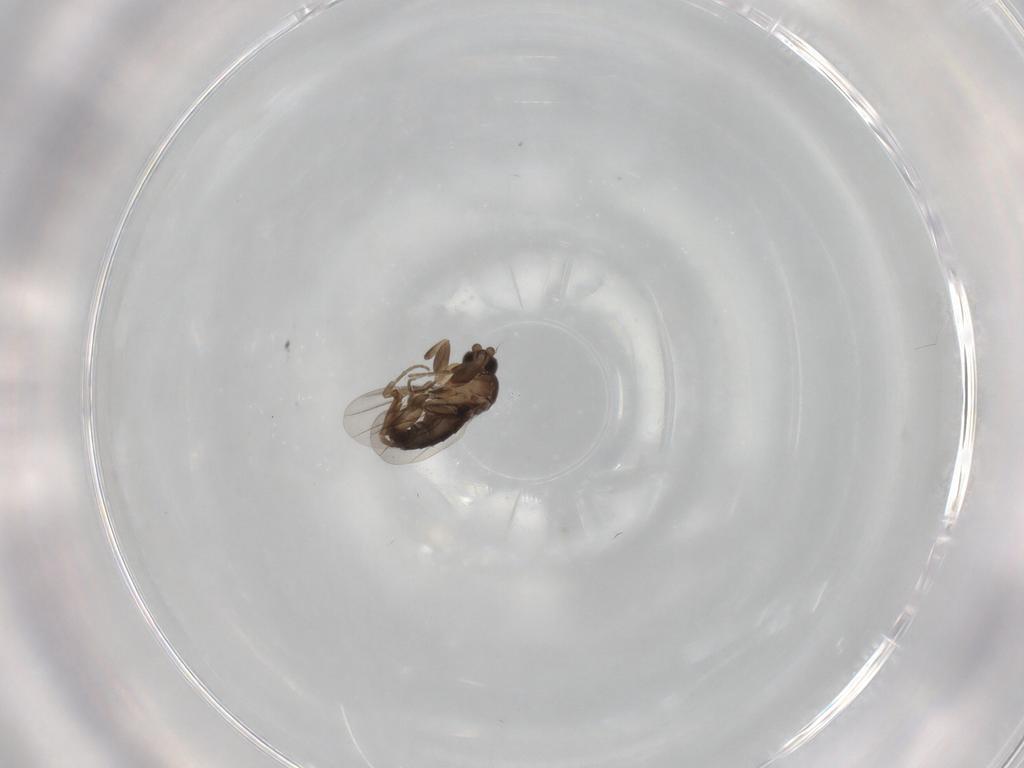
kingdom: Animalia
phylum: Arthropoda
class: Insecta
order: Diptera
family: Phoridae
